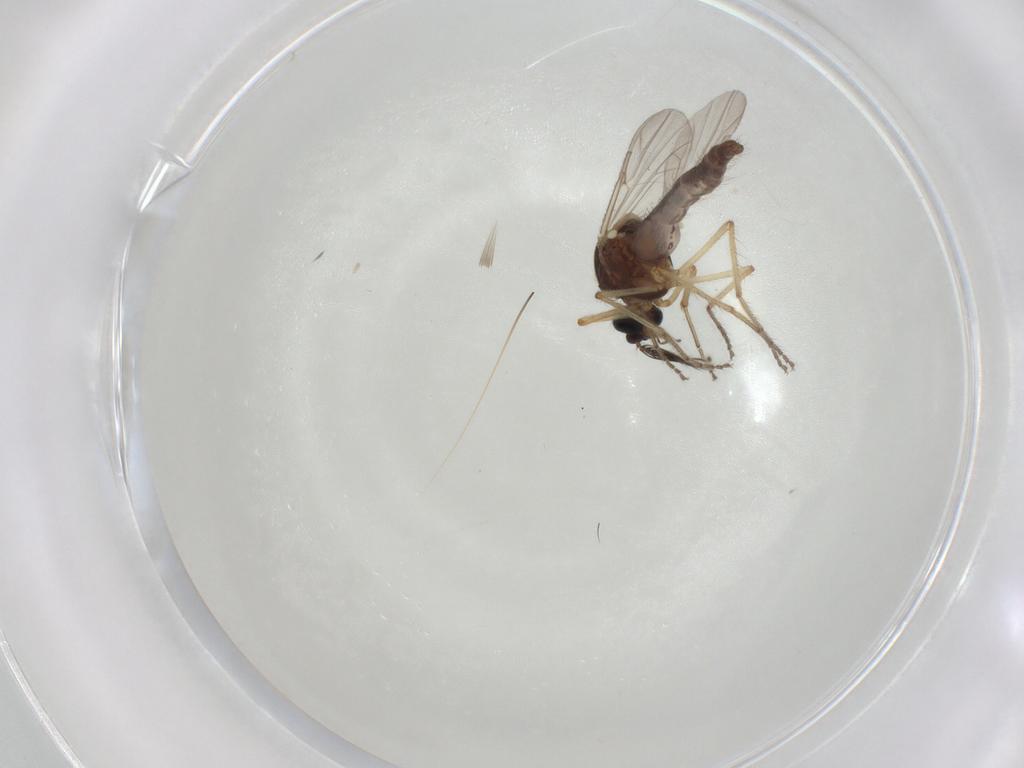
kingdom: Animalia
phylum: Arthropoda
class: Insecta
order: Diptera
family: Ceratopogonidae
